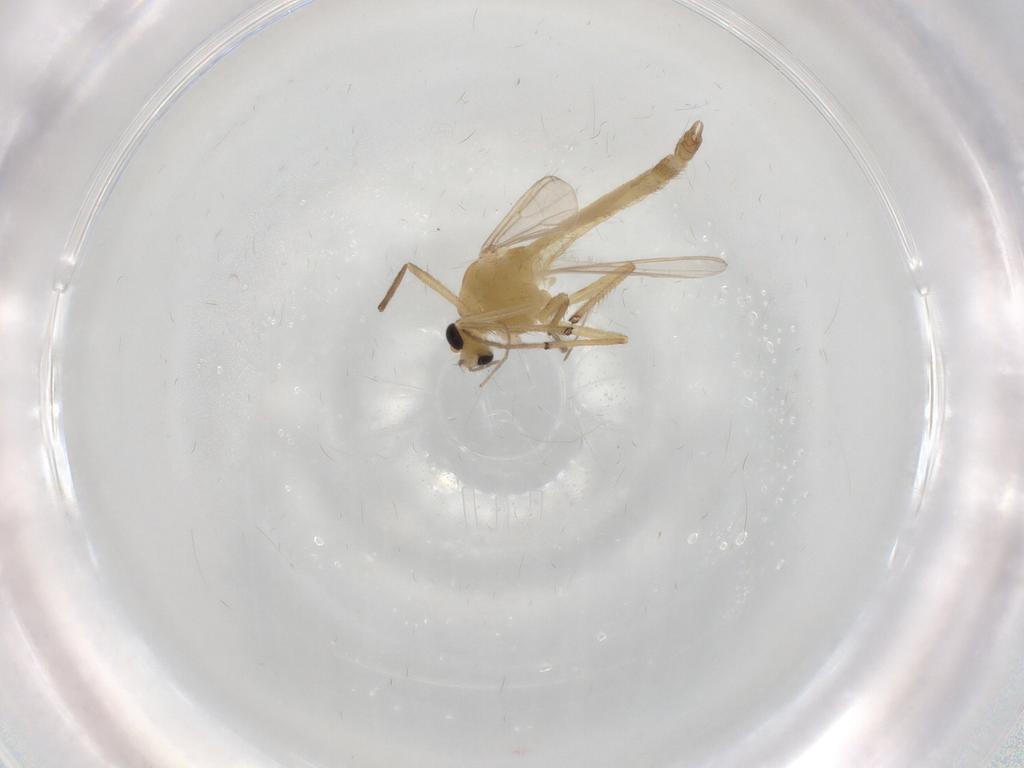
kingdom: Animalia
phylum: Arthropoda
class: Insecta
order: Diptera
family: Chironomidae
